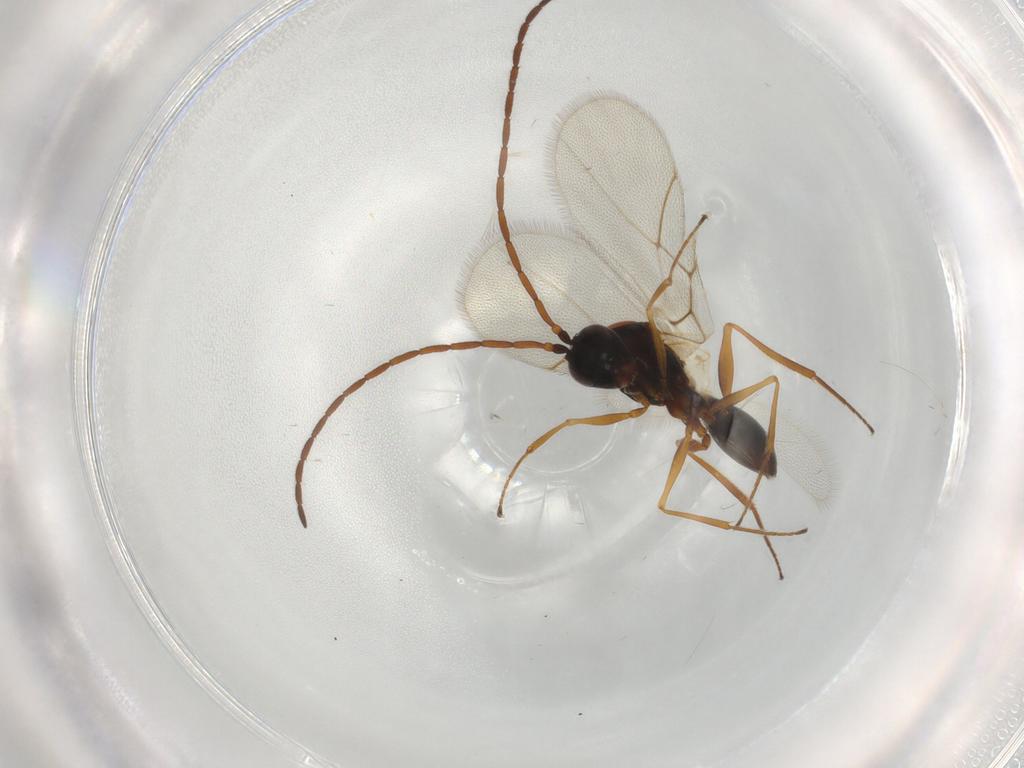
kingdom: Animalia
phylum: Arthropoda
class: Insecta
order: Hymenoptera
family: Figitidae
